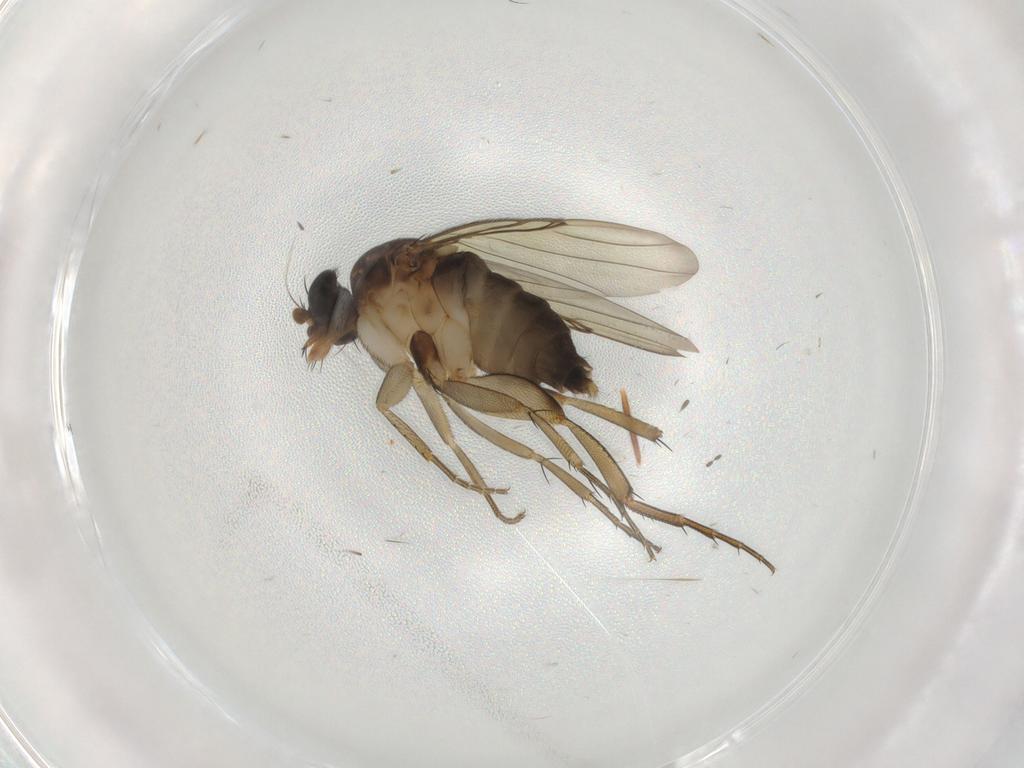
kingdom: Animalia
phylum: Arthropoda
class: Insecta
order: Diptera
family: Phoridae
